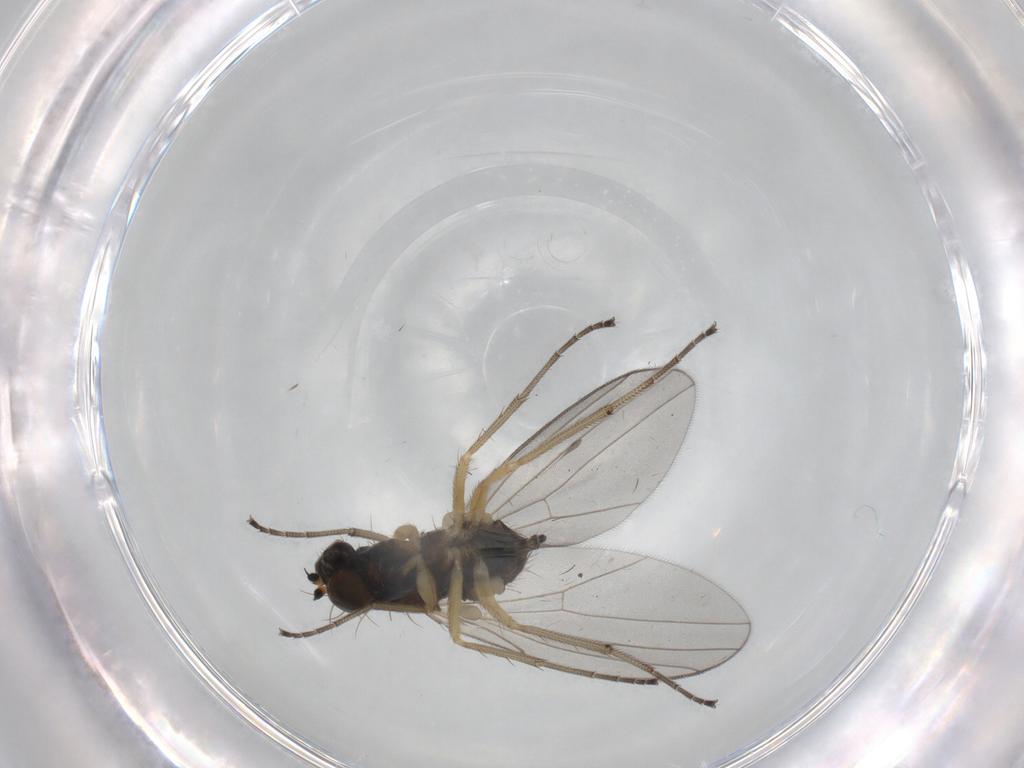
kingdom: Animalia
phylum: Arthropoda
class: Insecta
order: Diptera
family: Dolichopodidae
